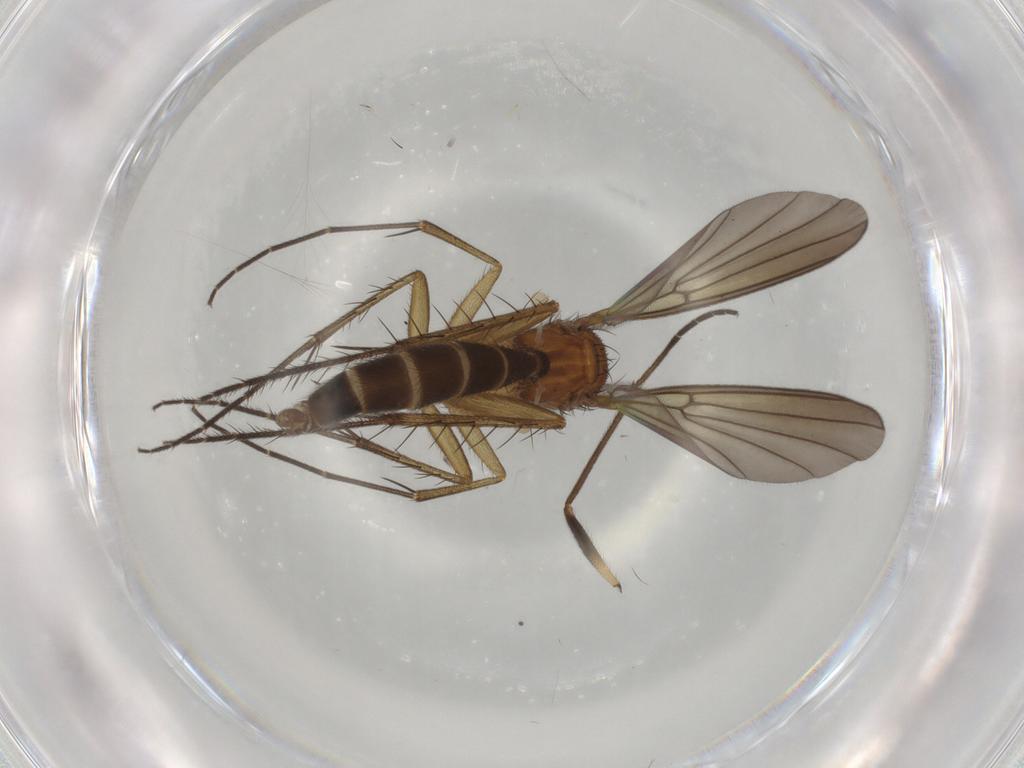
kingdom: Animalia
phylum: Arthropoda
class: Insecta
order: Diptera
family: Mycetophilidae
